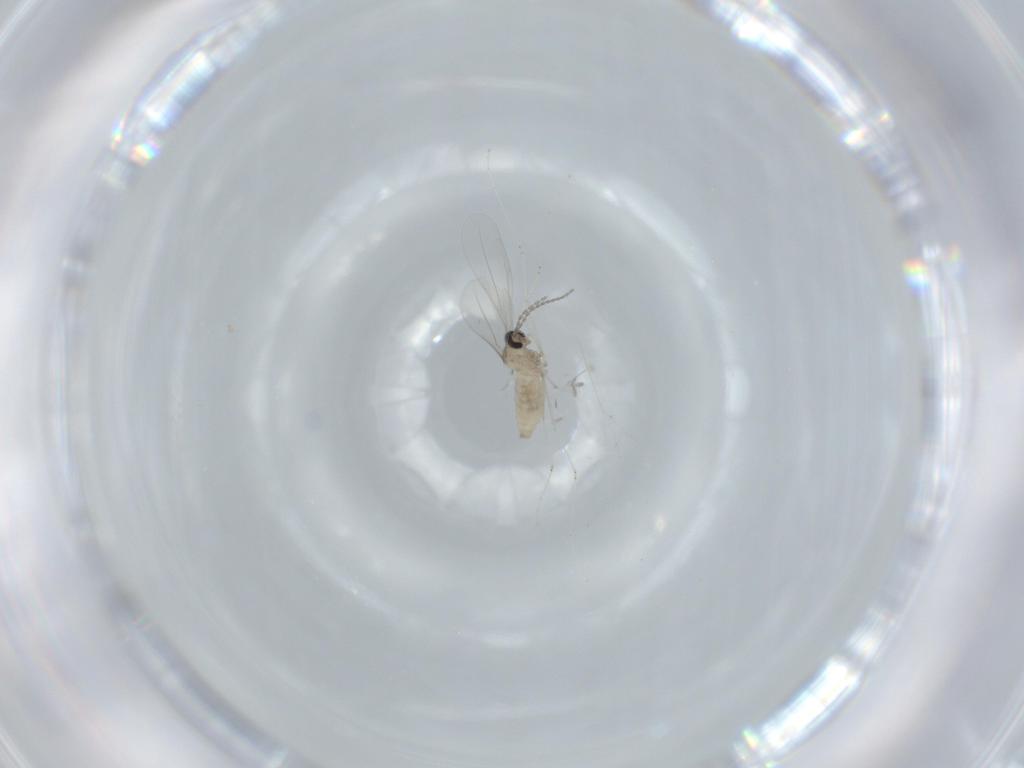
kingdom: Animalia
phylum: Arthropoda
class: Insecta
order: Diptera
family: Cecidomyiidae
